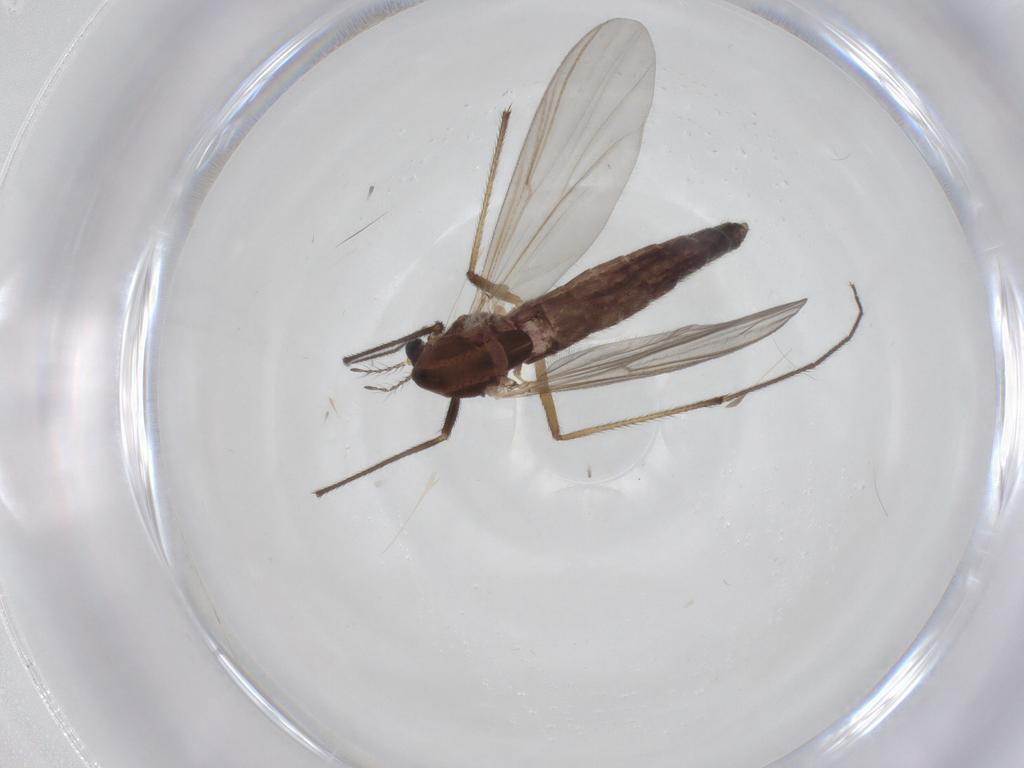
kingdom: Animalia
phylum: Arthropoda
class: Insecta
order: Diptera
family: Chironomidae
